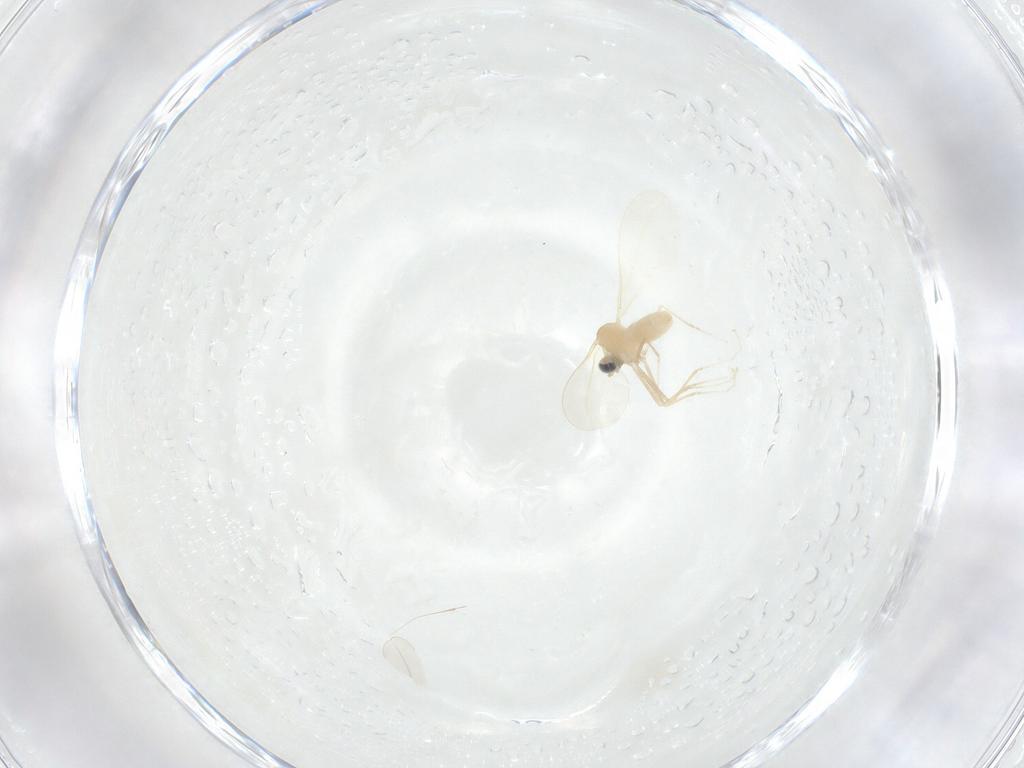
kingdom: Animalia
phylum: Arthropoda
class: Insecta
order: Diptera
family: Cecidomyiidae
